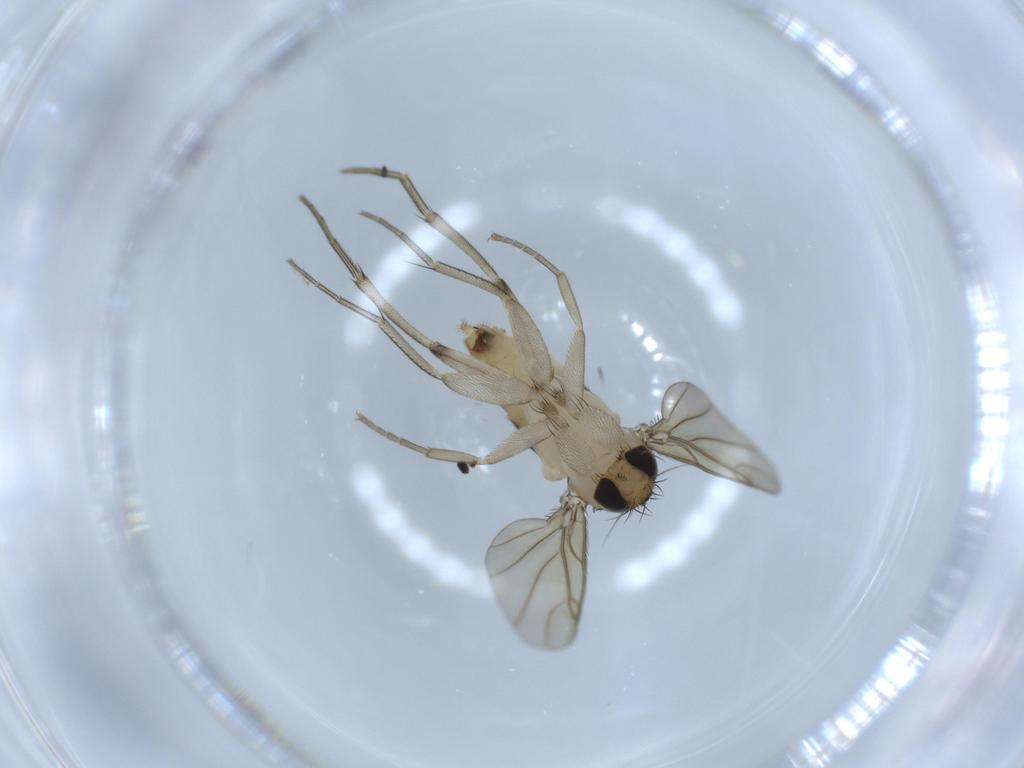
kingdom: Animalia
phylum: Arthropoda
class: Insecta
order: Diptera
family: Phoridae
